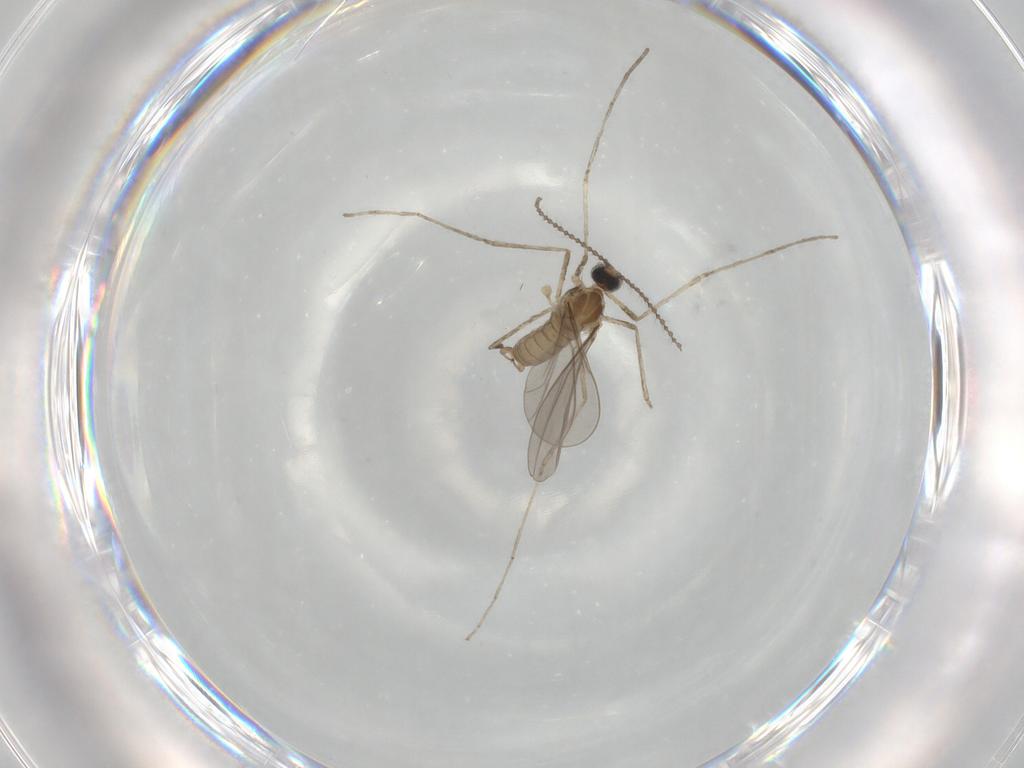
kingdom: Animalia
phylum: Arthropoda
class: Insecta
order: Diptera
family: Cecidomyiidae
